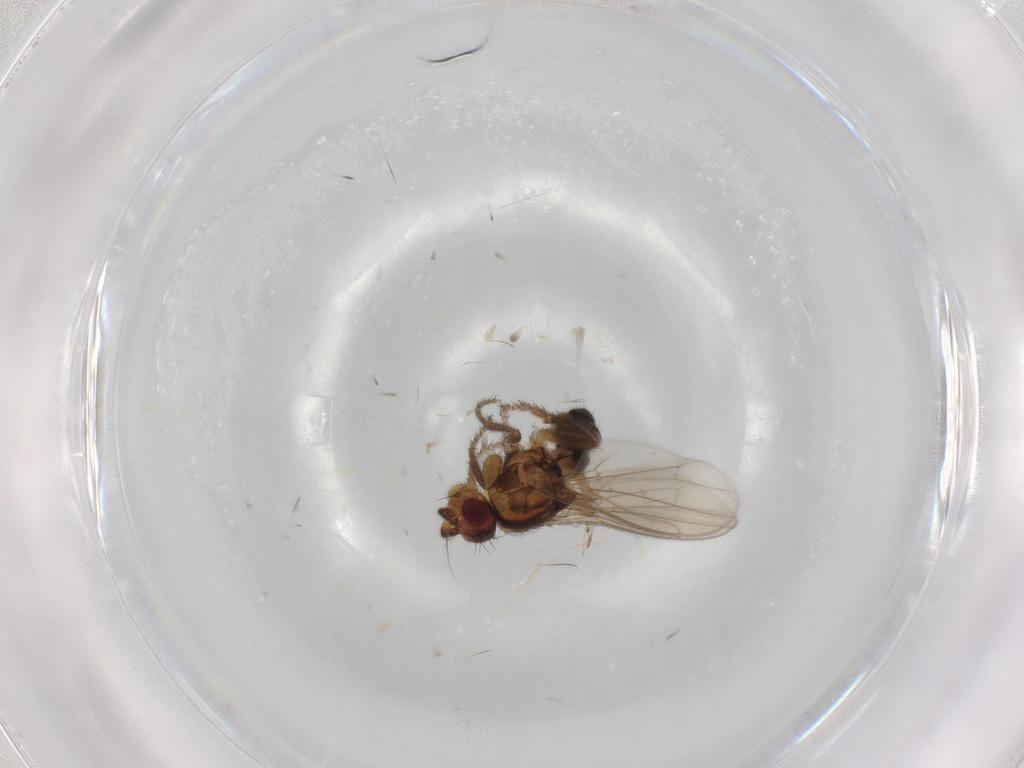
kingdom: Animalia
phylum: Arthropoda
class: Insecta
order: Diptera
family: Sphaeroceridae
